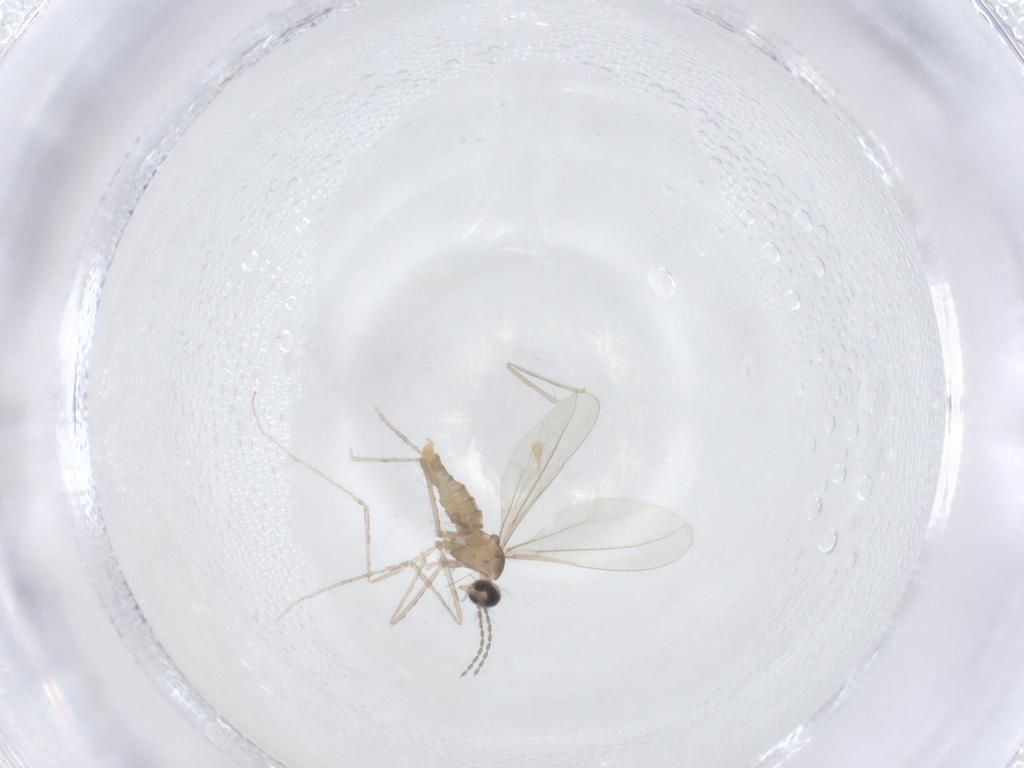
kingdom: Animalia
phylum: Arthropoda
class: Insecta
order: Diptera
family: Cecidomyiidae
